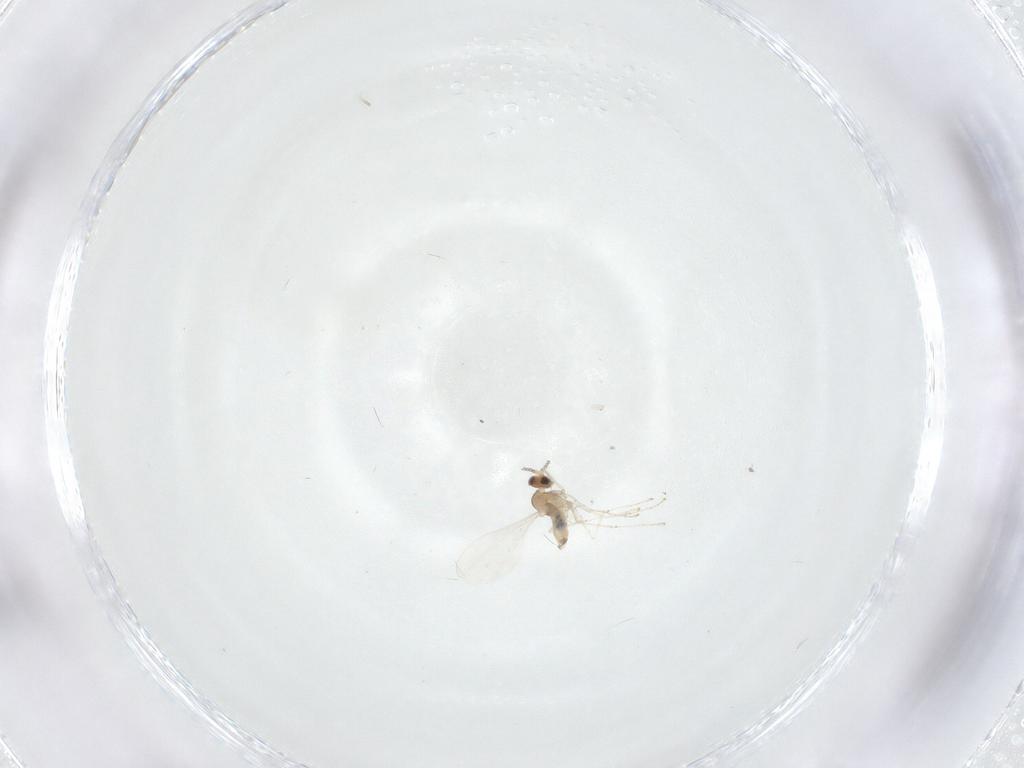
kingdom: Animalia
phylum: Arthropoda
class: Insecta
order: Diptera
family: Cecidomyiidae
